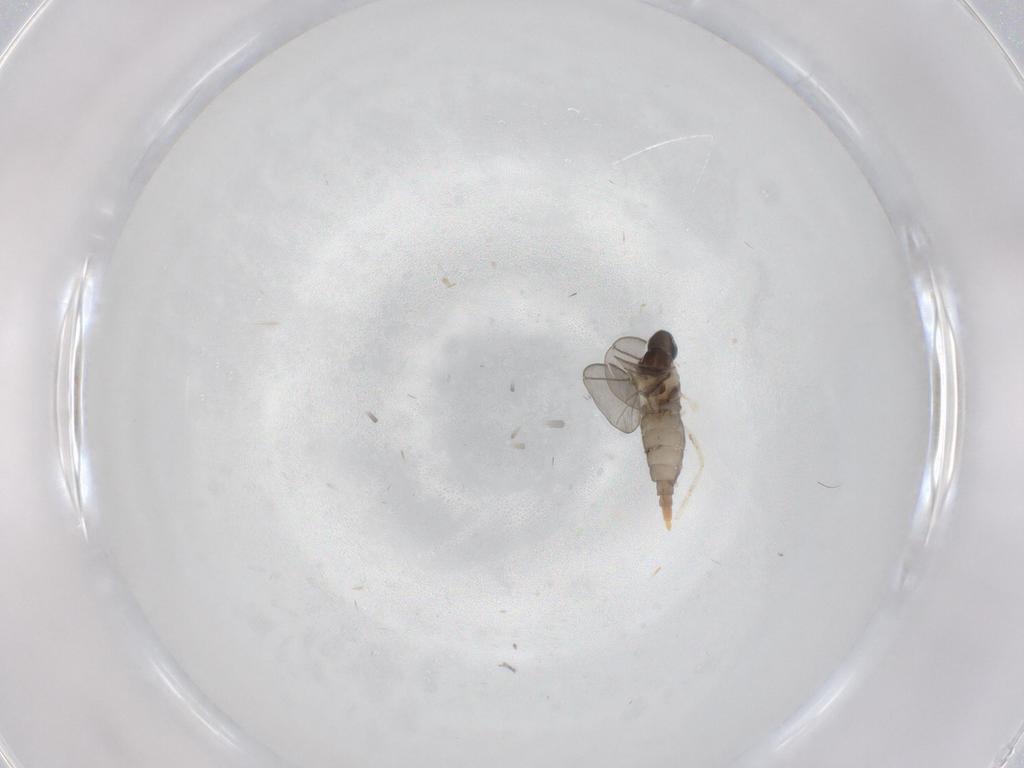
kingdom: Animalia
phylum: Arthropoda
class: Insecta
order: Diptera
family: Cecidomyiidae
